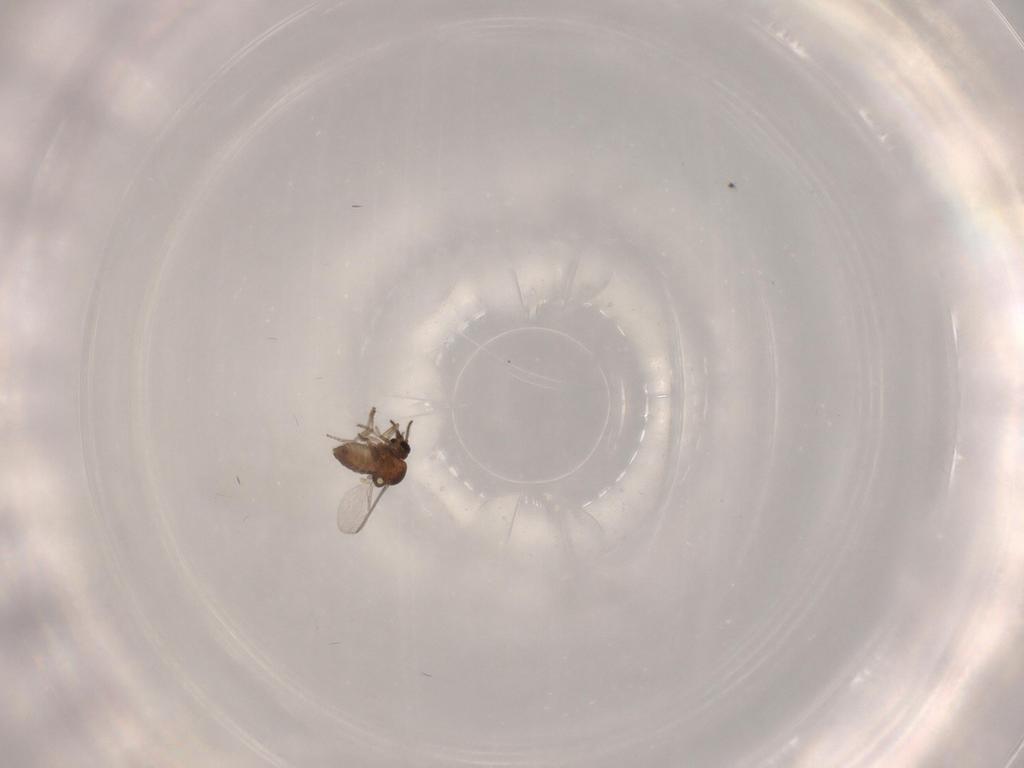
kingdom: Animalia
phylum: Arthropoda
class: Insecta
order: Diptera
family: Ceratopogonidae
